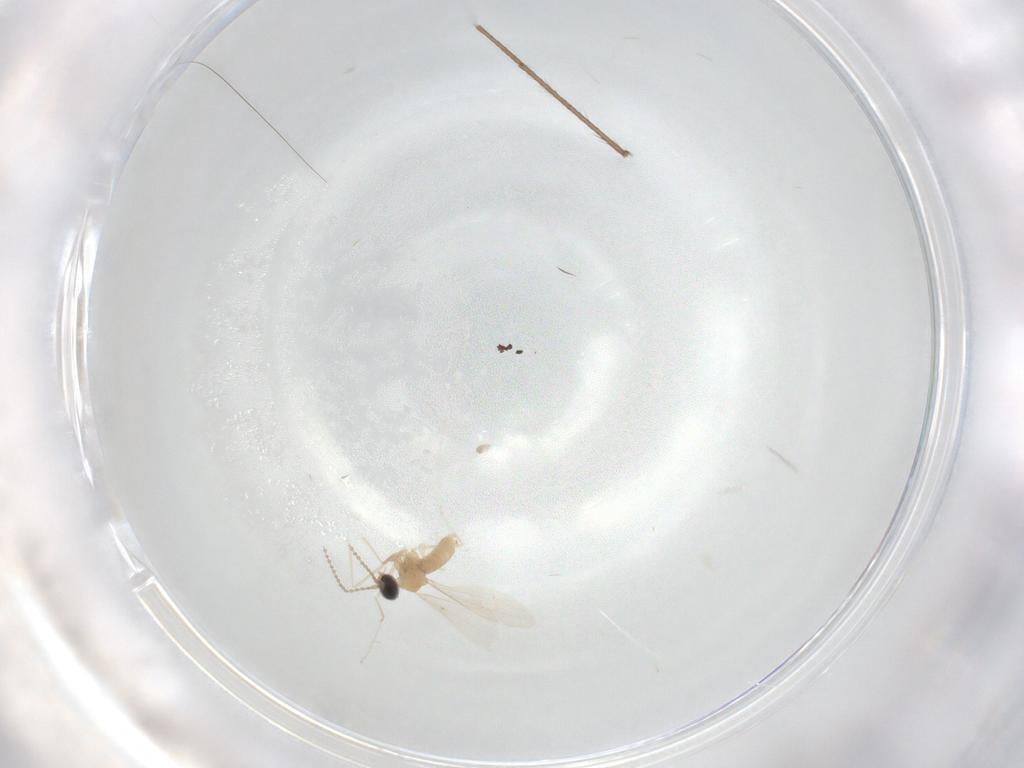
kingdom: Animalia
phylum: Arthropoda
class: Insecta
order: Diptera
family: Limoniidae
